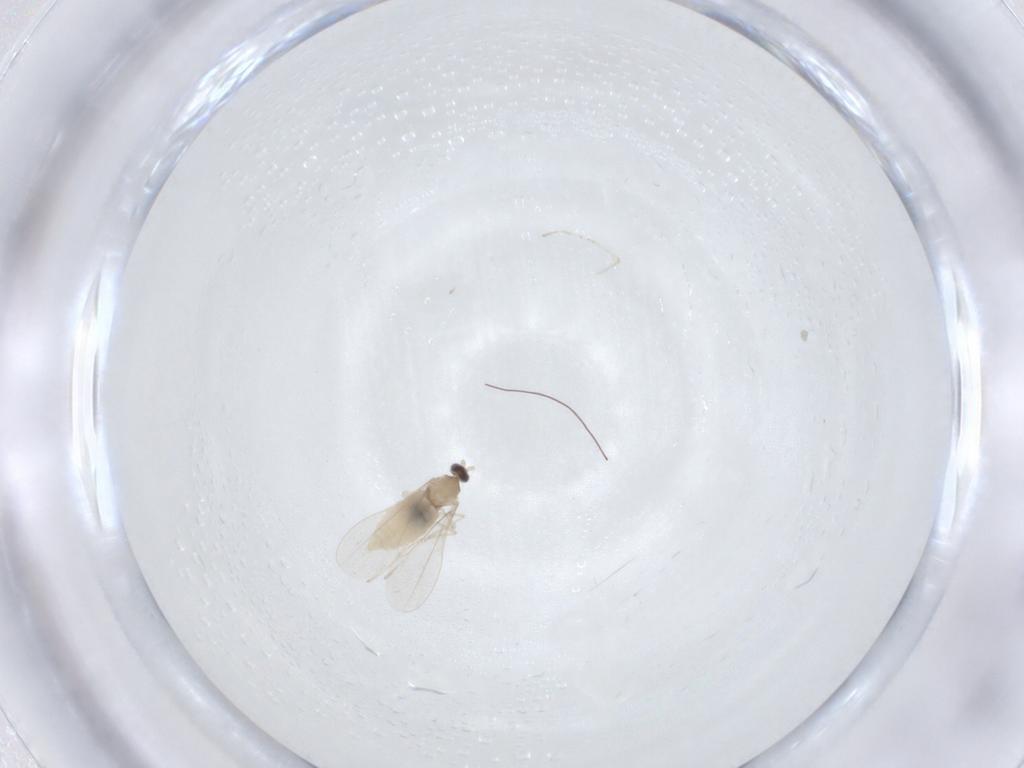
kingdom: Animalia
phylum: Arthropoda
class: Insecta
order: Diptera
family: Cecidomyiidae
